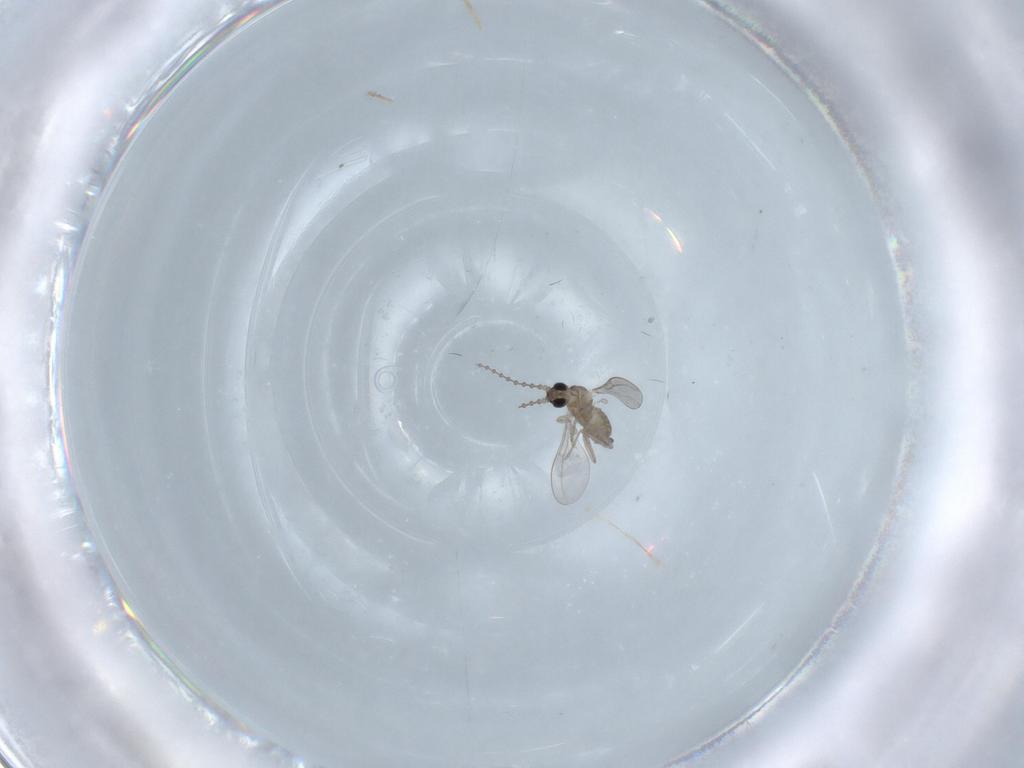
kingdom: Animalia
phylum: Arthropoda
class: Insecta
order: Diptera
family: Cecidomyiidae
